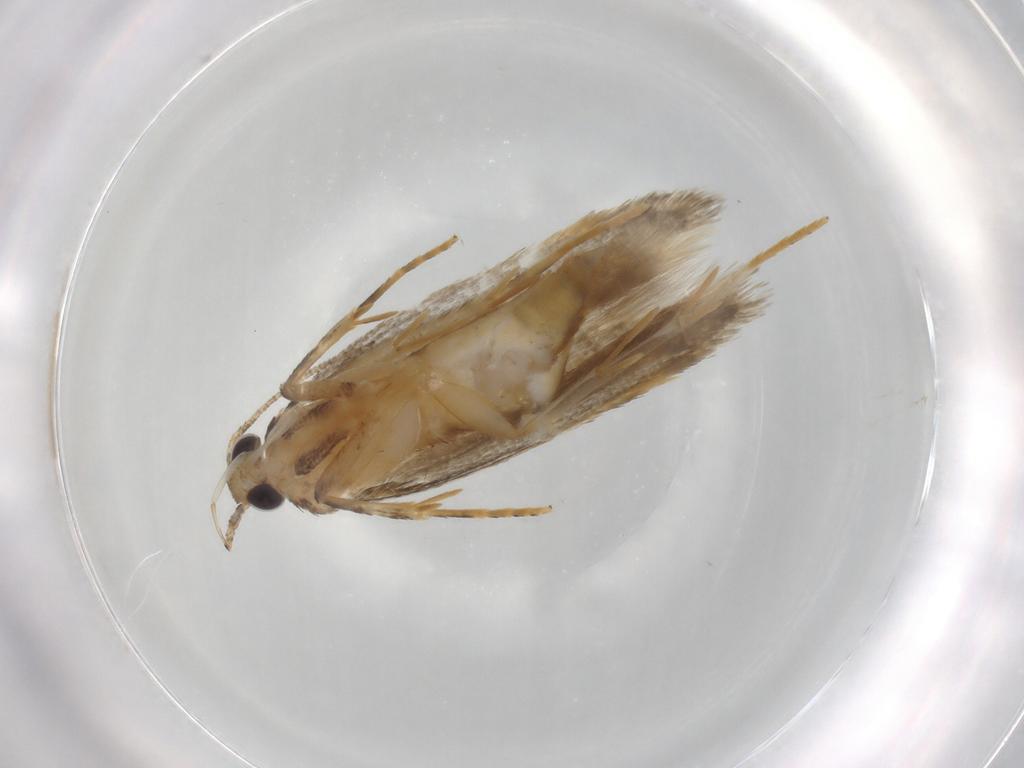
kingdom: Animalia
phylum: Arthropoda
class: Insecta
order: Lepidoptera
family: Autostichidae
